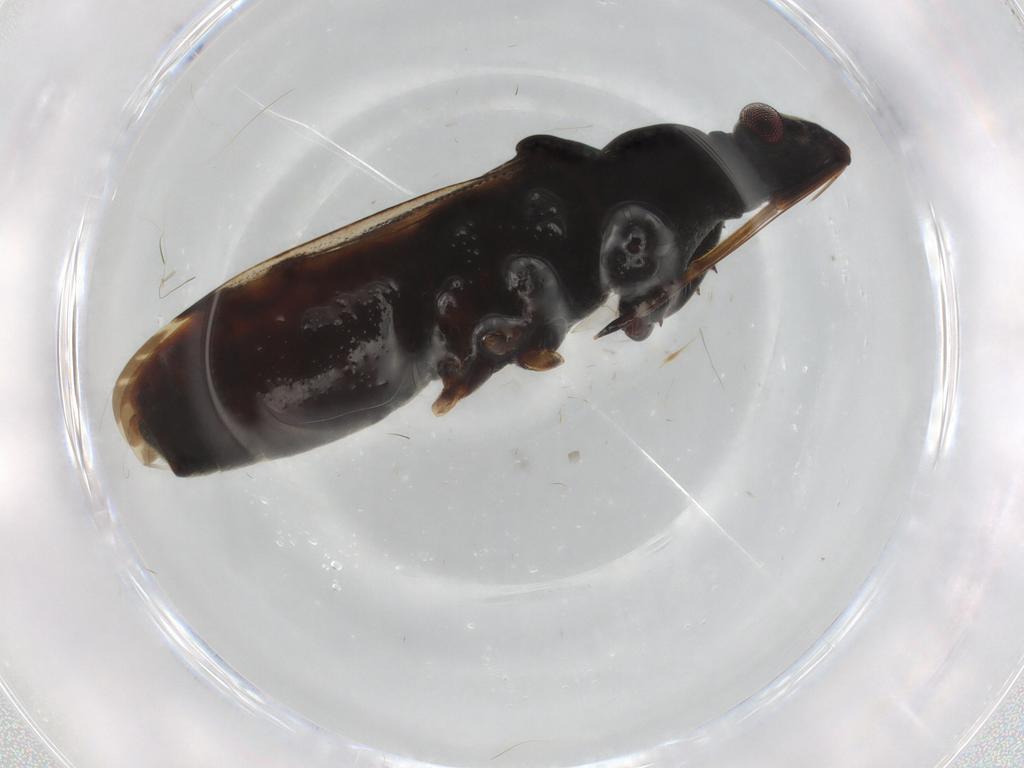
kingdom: Animalia
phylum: Arthropoda
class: Insecta
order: Hemiptera
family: Rhyparochromidae
